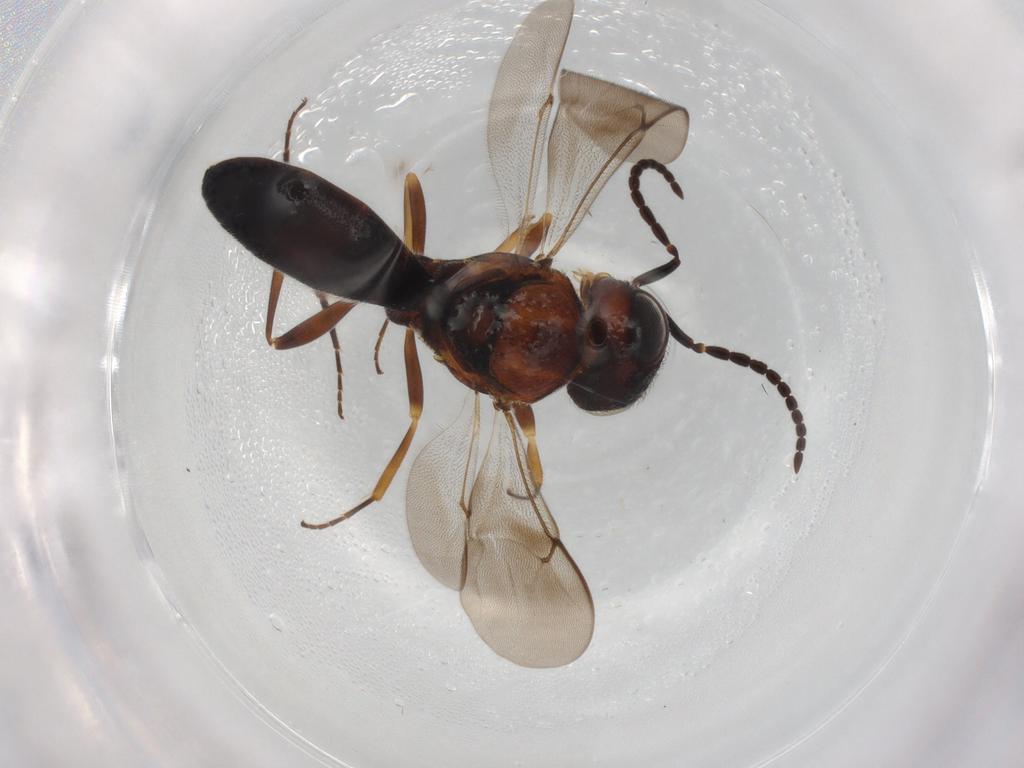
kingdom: Animalia
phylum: Arthropoda
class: Insecta
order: Hymenoptera
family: Scelionidae
